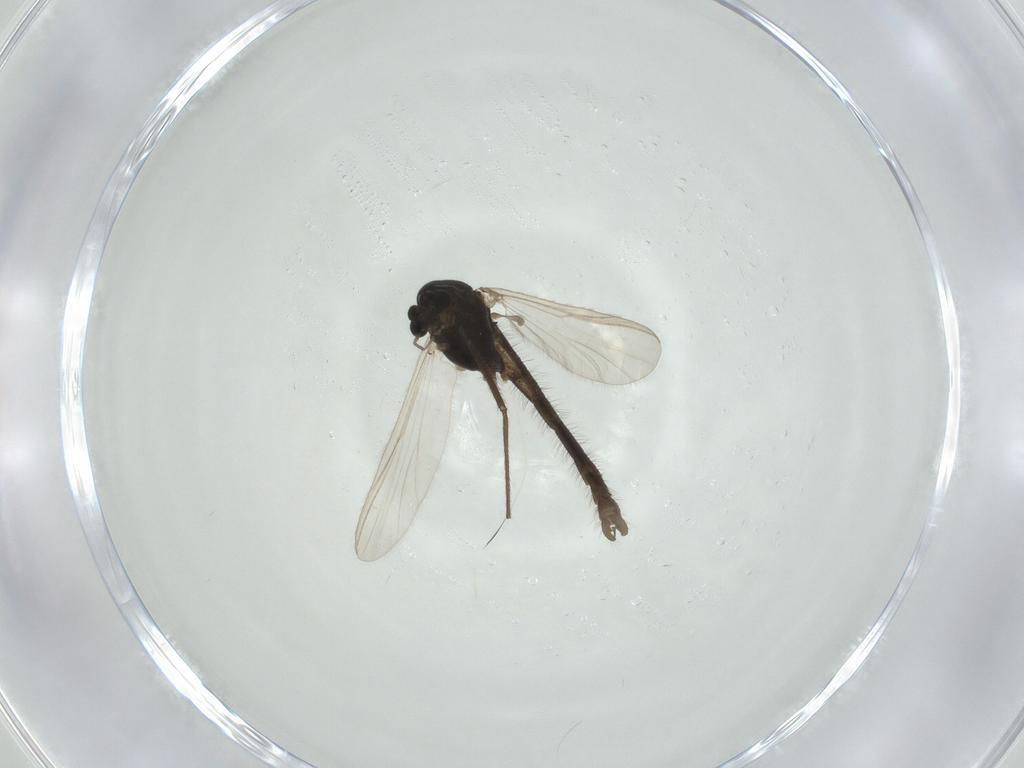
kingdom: Animalia
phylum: Arthropoda
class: Insecta
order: Diptera
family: Chironomidae
